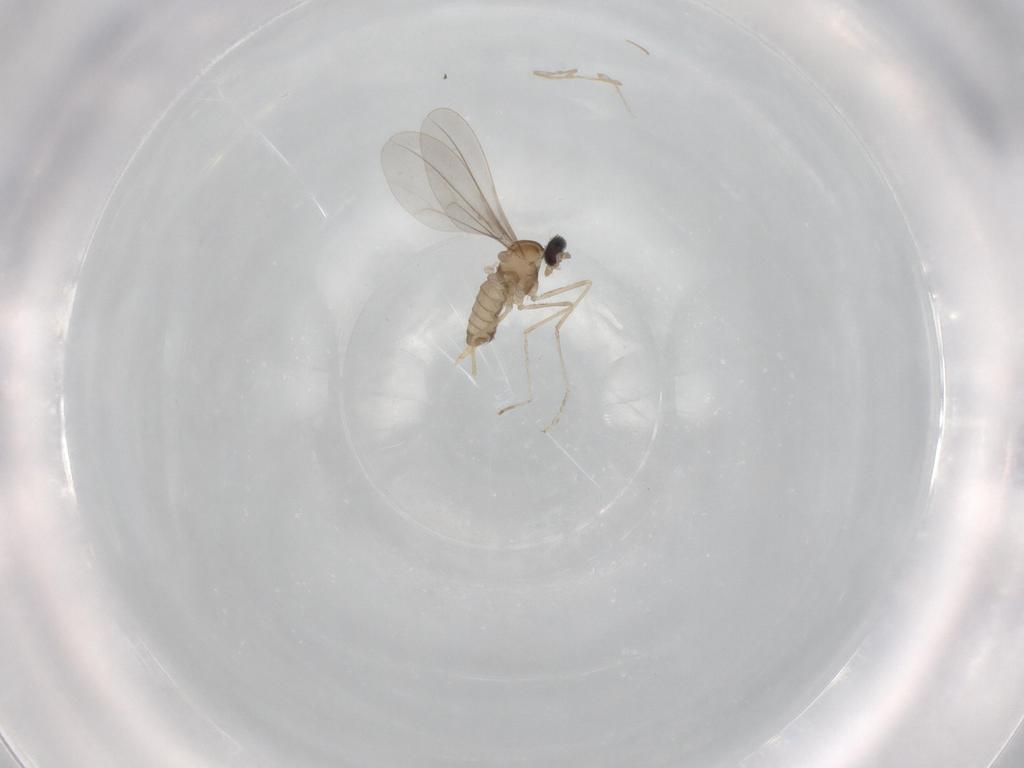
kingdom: Animalia
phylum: Arthropoda
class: Insecta
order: Diptera
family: Cecidomyiidae
